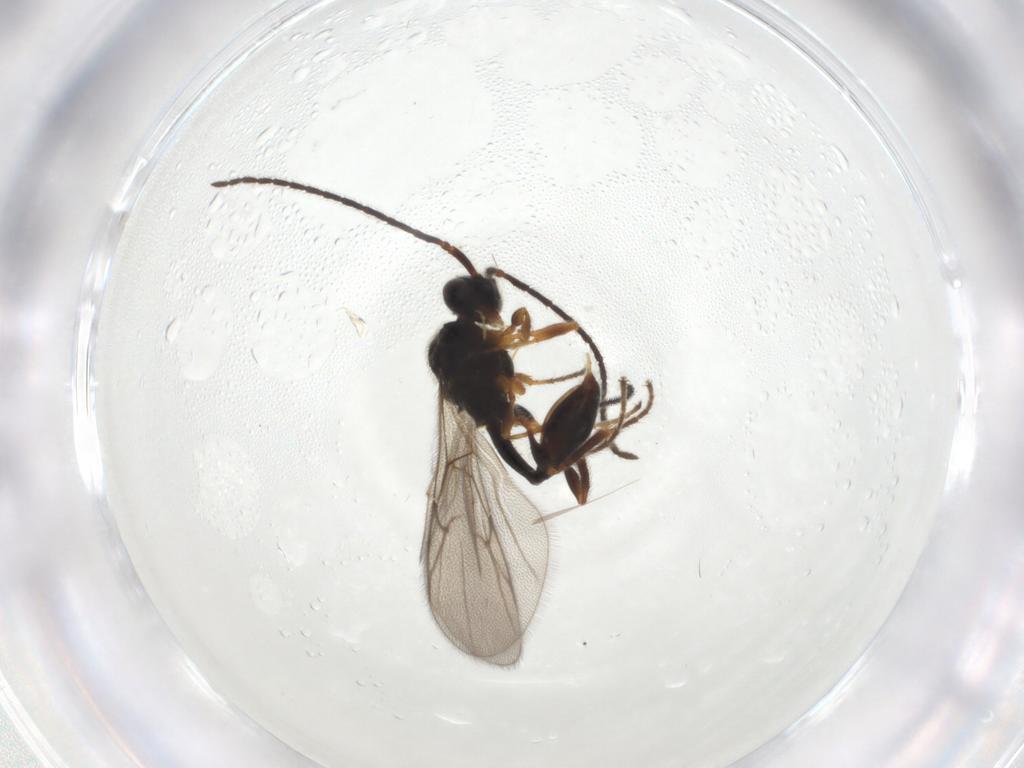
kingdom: Animalia
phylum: Arthropoda
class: Insecta
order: Hymenoptera
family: Diapriidae
